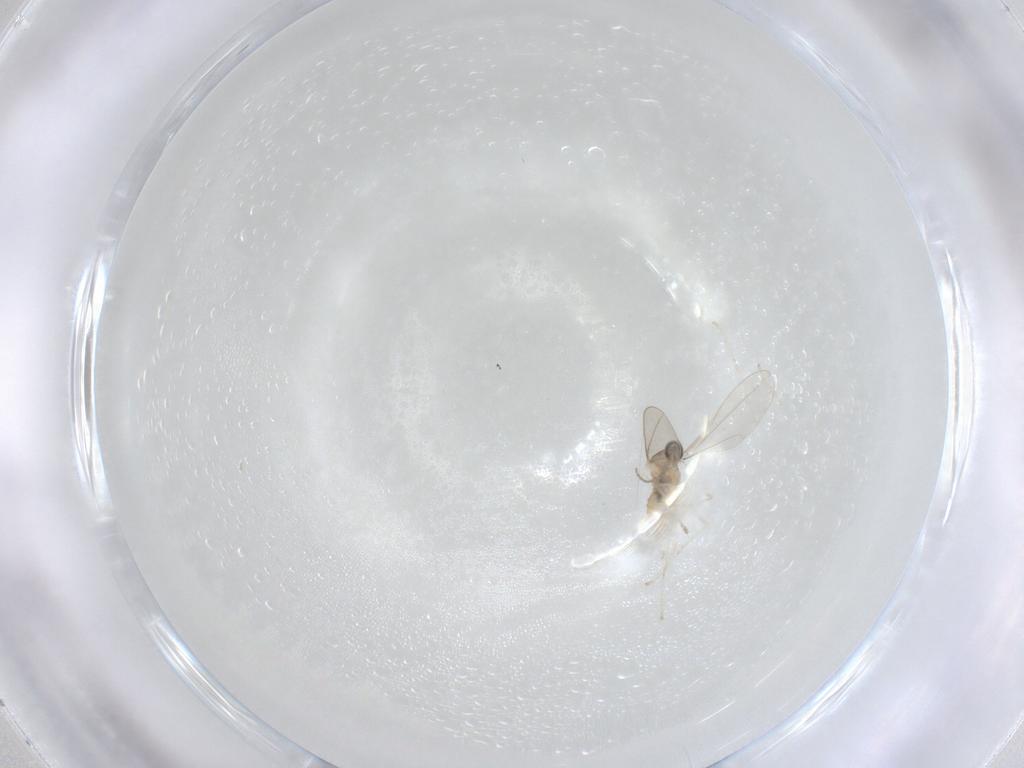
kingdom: Animalia
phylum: Arthropoda
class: Insecta
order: Diptera
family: Cecidomyiidae
